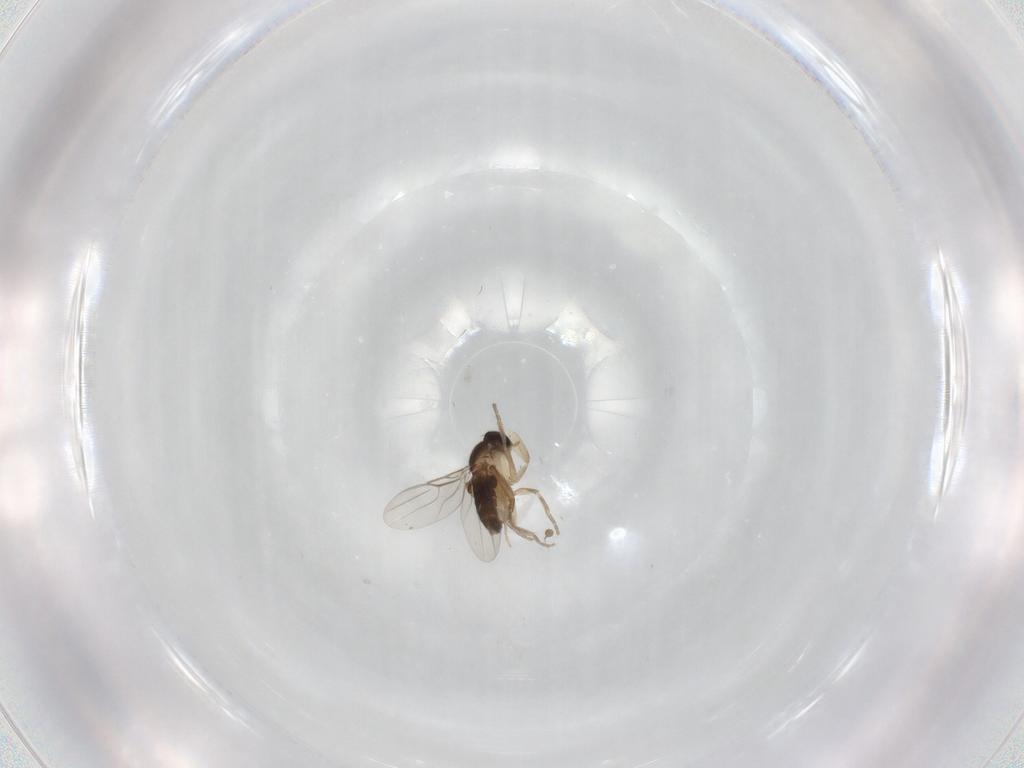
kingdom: Animalia
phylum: Arthropoda
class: Insecta
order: Diptera
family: Phoridae
